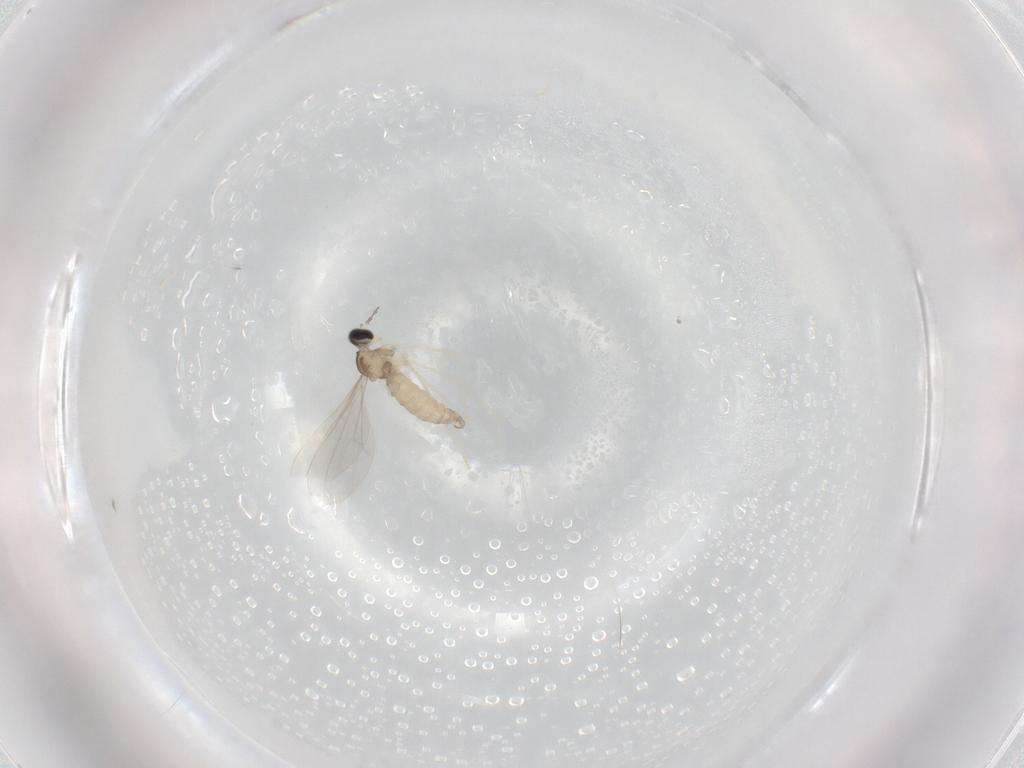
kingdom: Animalia
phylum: Arthropoda
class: Insecta
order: Diptera
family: Cecidomyiidae
